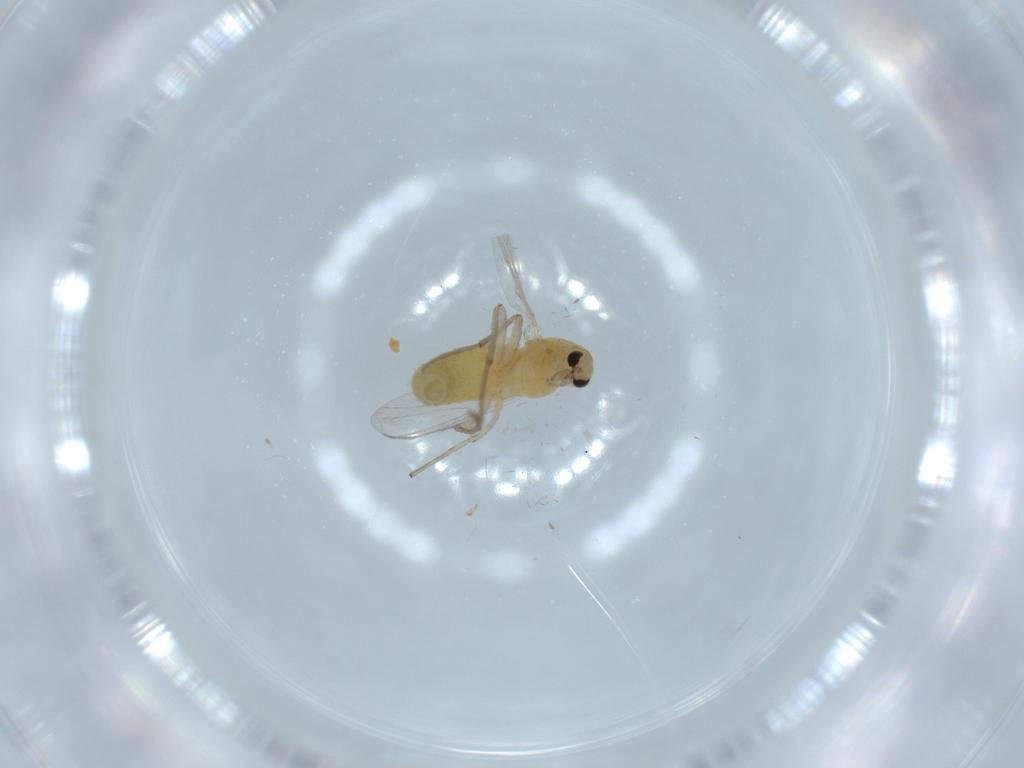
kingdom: Animalia
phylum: Arthropoda
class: Insecta
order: Diptera
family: Chironomidae
